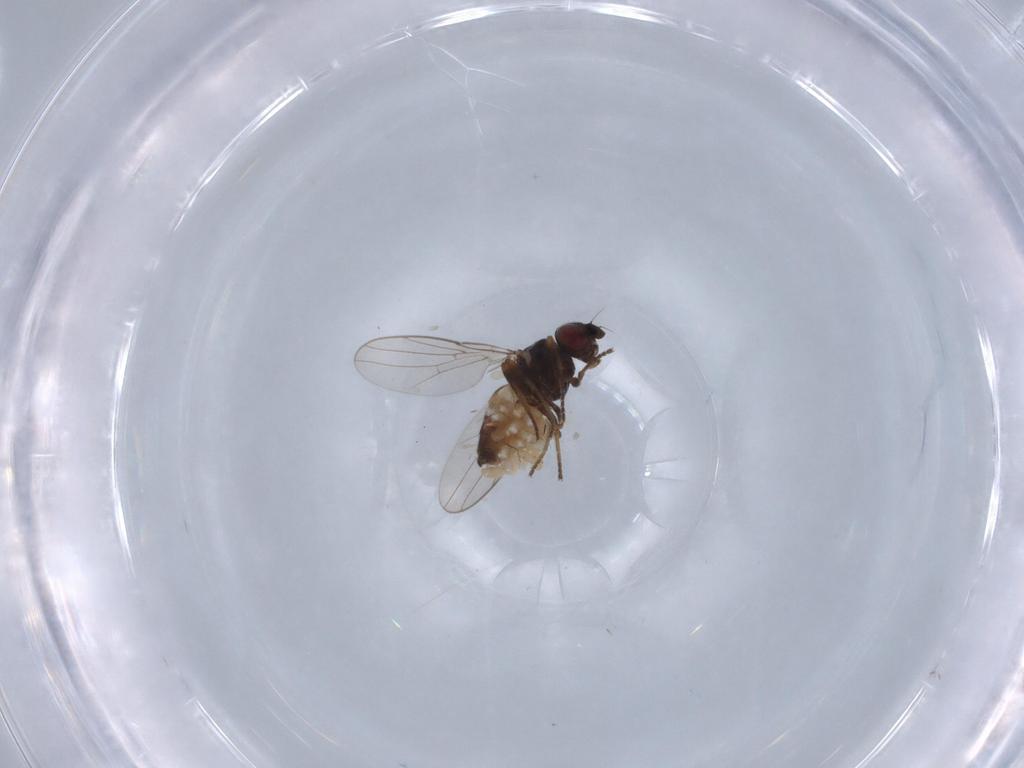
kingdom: Animalia
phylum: Arthropoda
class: Insecta
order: Diptera
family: Chloropidae
